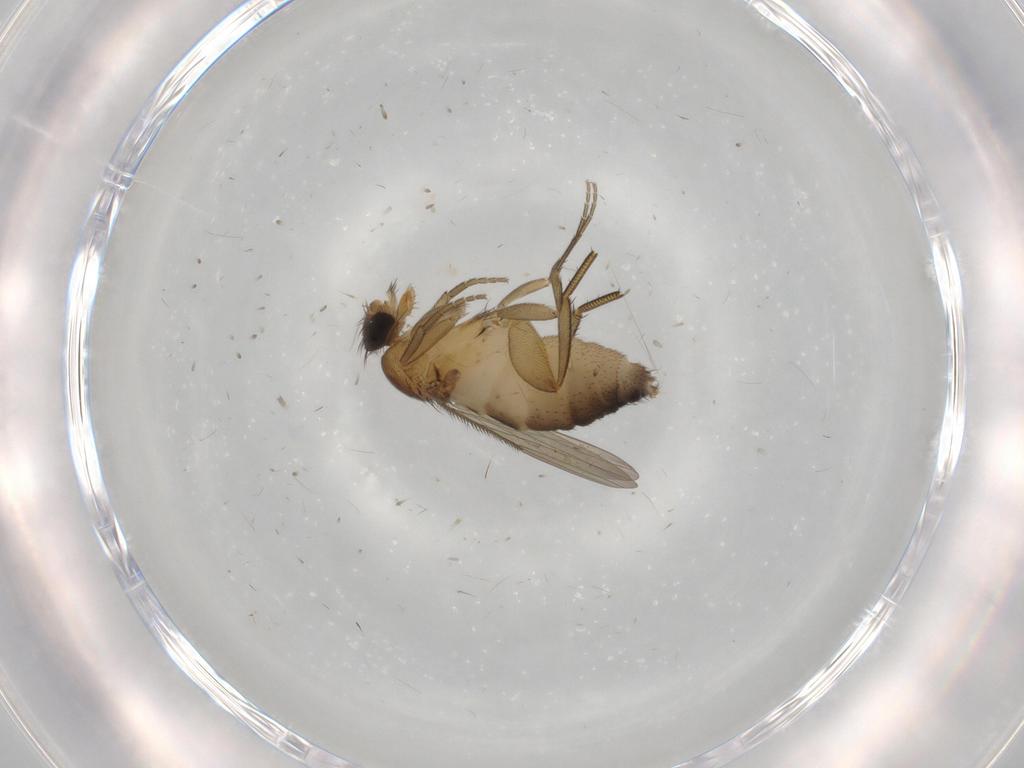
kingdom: Animalia
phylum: Arthropoda
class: Insecta
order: Diptera
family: Phoridae
